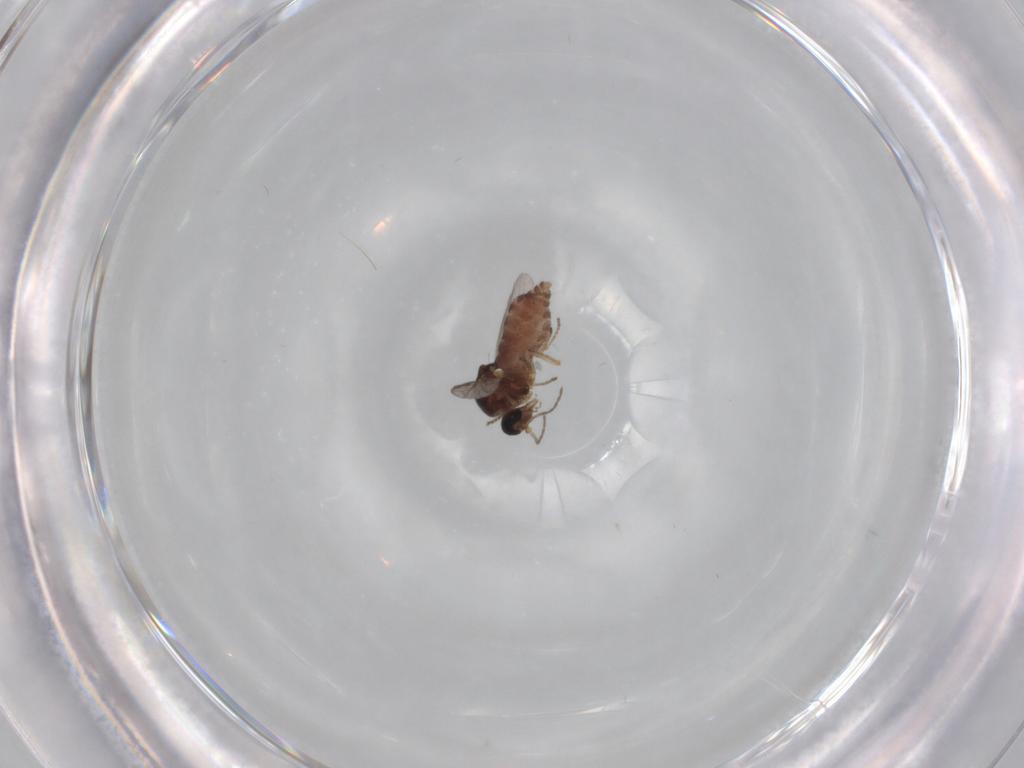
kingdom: Animalia
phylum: Arthropoda
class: Insecta
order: Diptera
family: Ceratopogonidae
